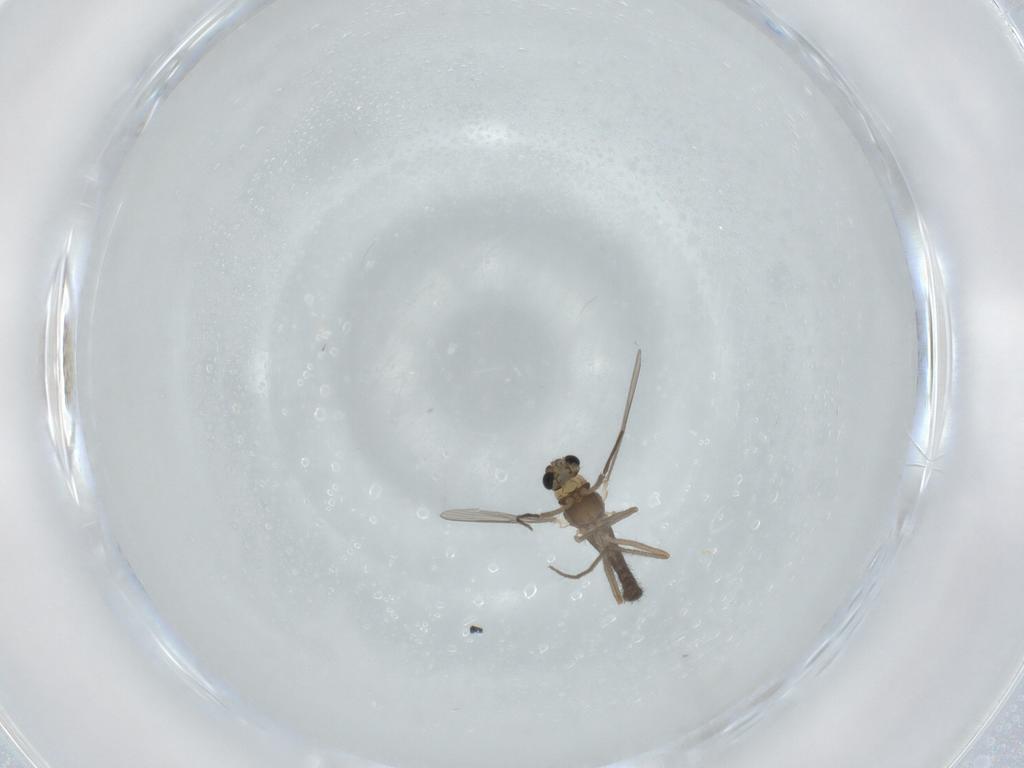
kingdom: Animalia
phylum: Arthropoda
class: Insecta
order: Diptera
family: Chironomidae
